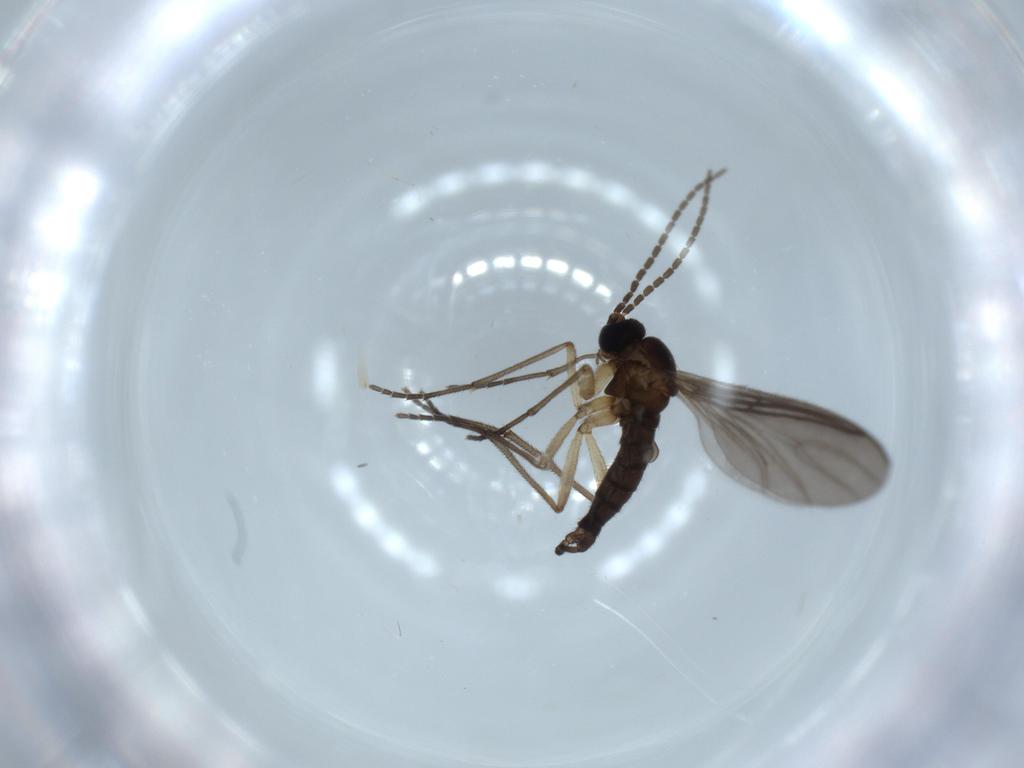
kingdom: Animalia
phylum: Arthropoda
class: Insecta
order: Diptera
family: Sciaridae
